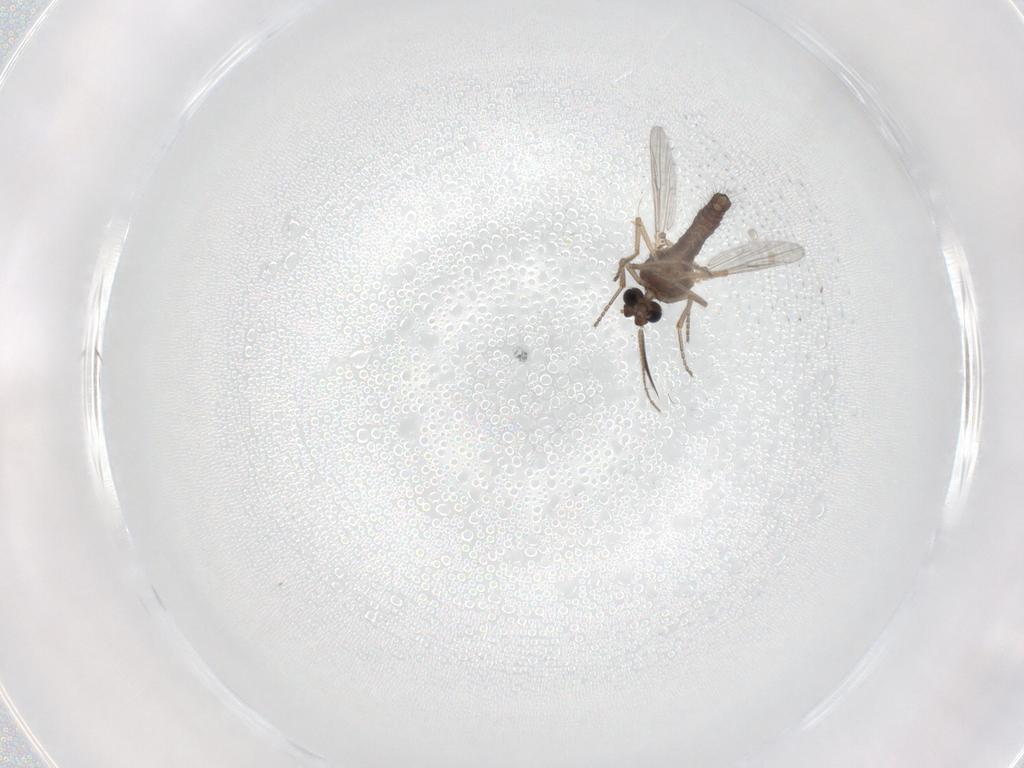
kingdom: Animalia
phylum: Arthropoda
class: Insecta
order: Diptera
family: Ceratopogonidae
